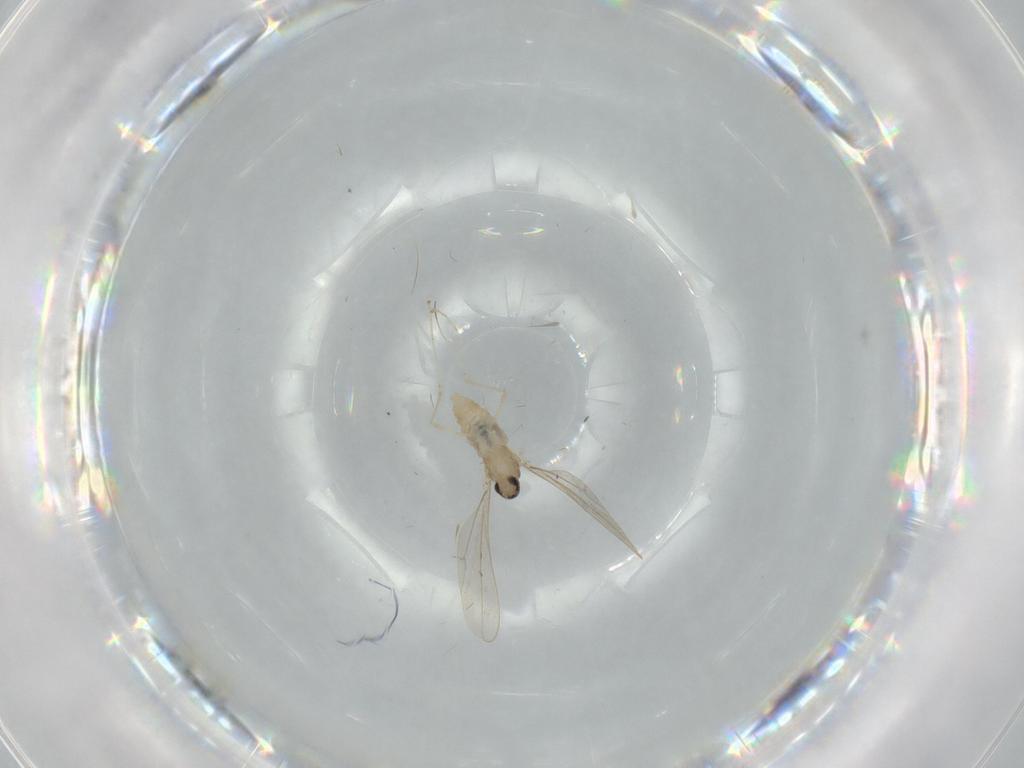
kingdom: Animalia
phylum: Arthropoda
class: Insecta
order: Diptera
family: Cecidomyiidae
